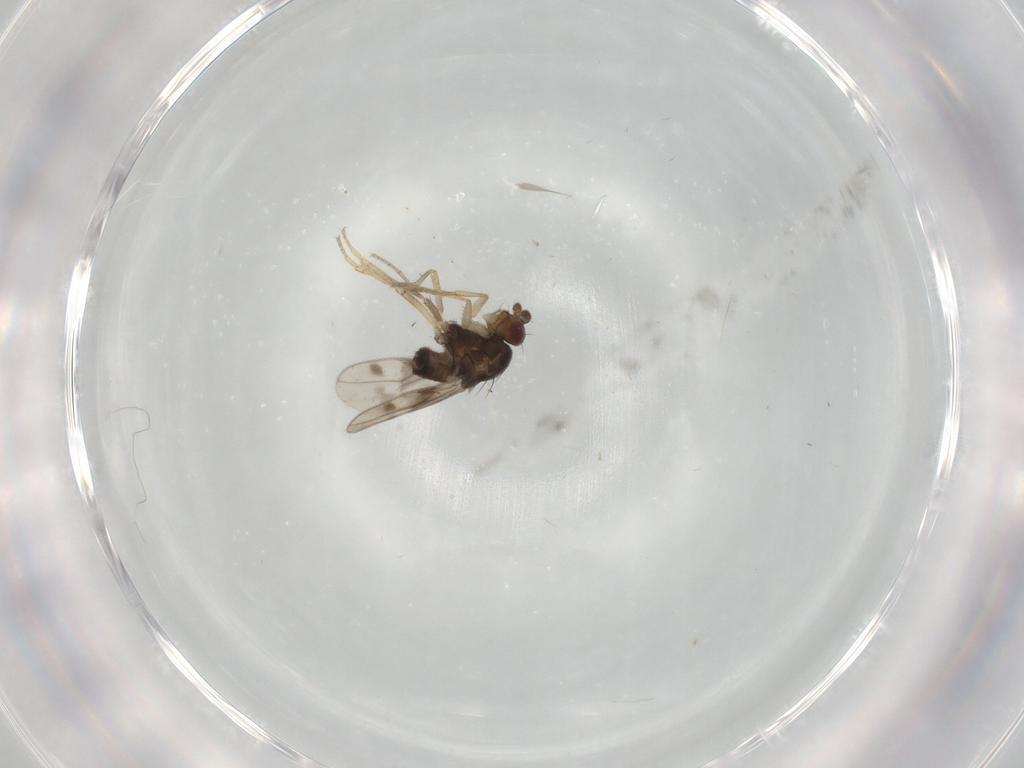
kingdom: Animalia
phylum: Arthropoda
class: Insecta
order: Diptera
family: Sphaeroceridae
